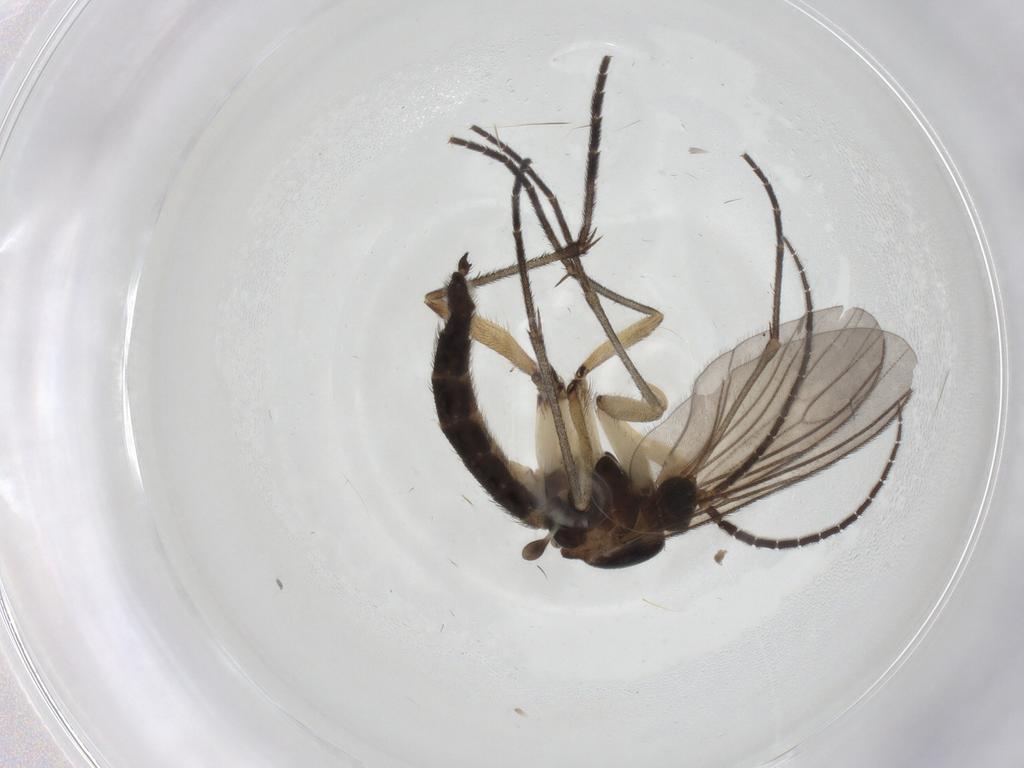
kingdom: Animalia
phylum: Arthropoda
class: Insecta
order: Diptera
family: Sciaridae
